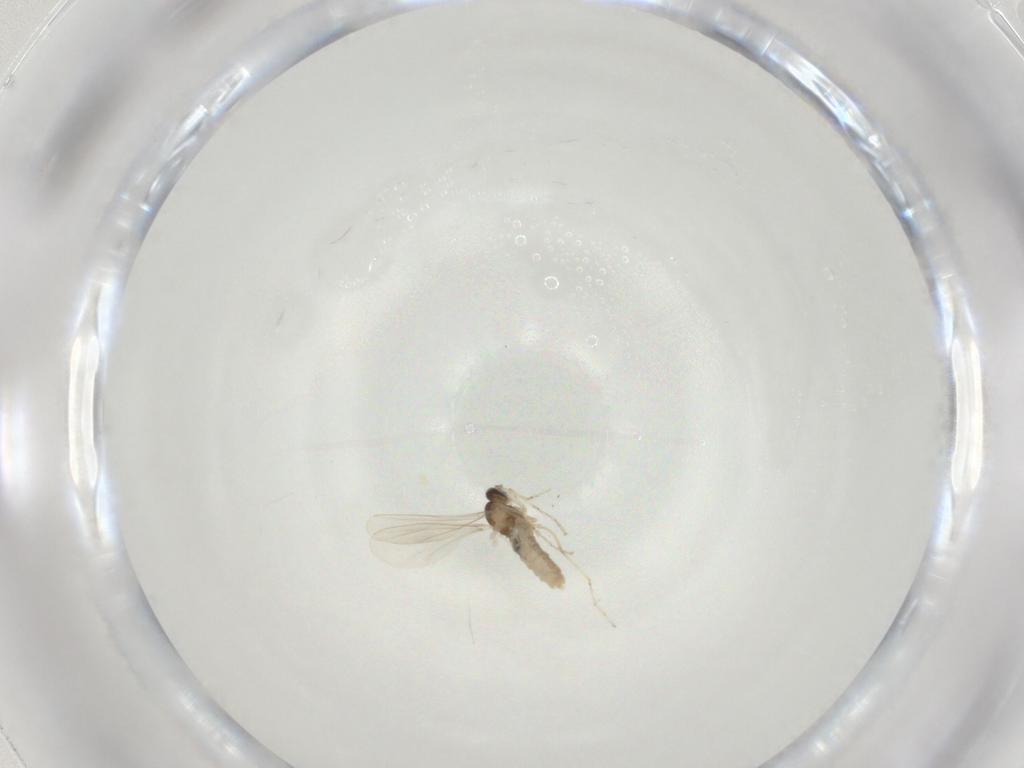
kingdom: Animalia
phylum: Arthropoda
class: Insecta
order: Diptera
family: Cecidomyiidae
